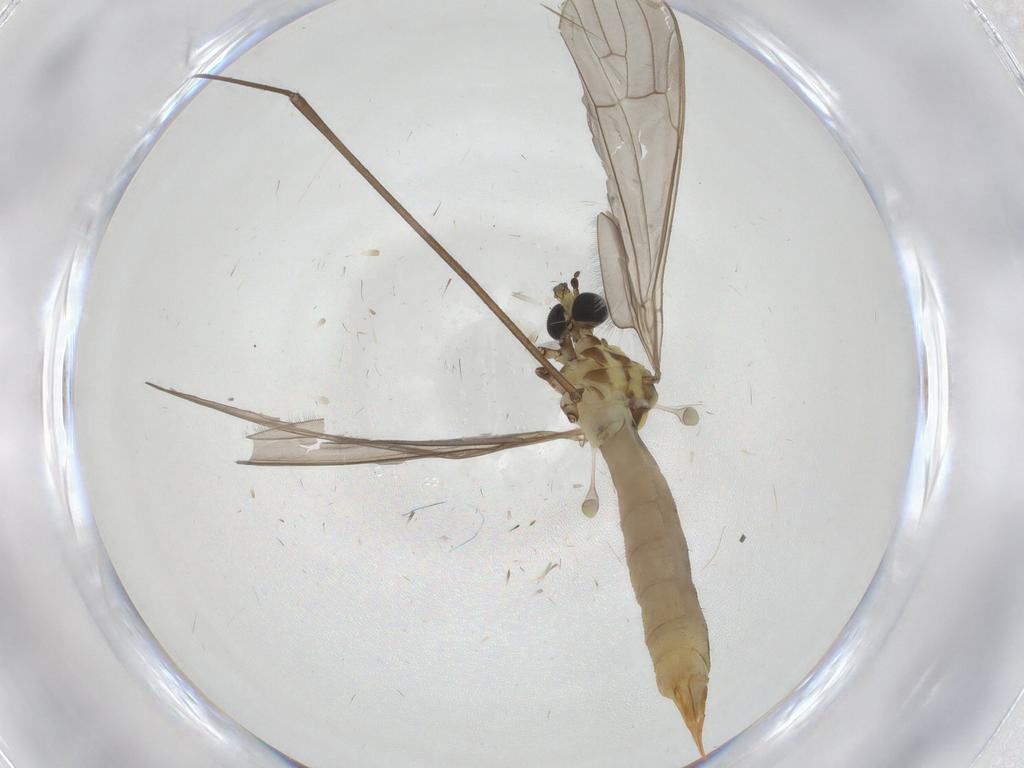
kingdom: Animalia
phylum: Arthropoda
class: Insecta
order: Diptera
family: Limoniidae
